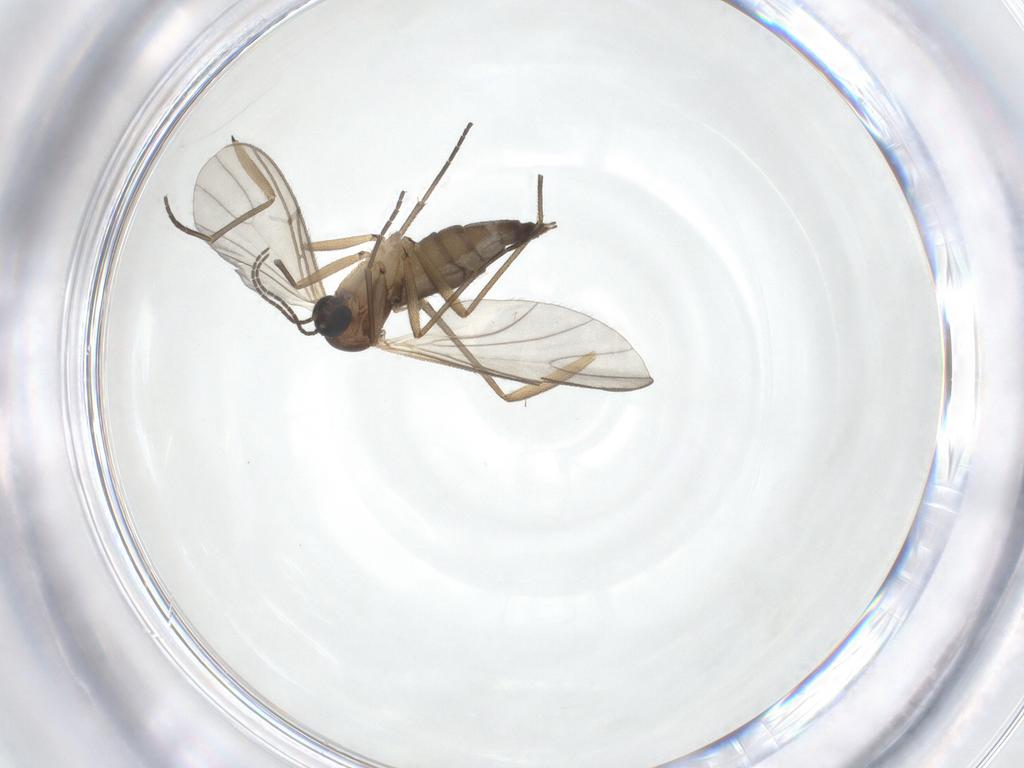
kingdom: Animalia
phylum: Arthropoda
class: Insecta
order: Diptera
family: Sciaridae
